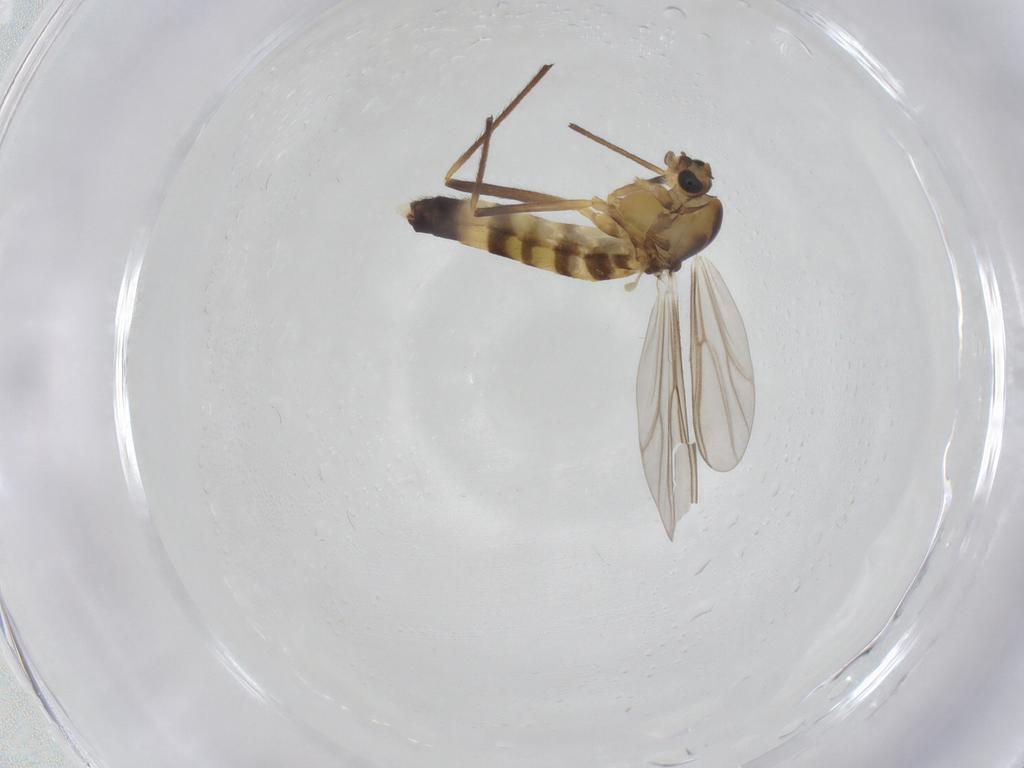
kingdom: Animalia
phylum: Arthropoda
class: Insecta
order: Diptera
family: Chironomidae
